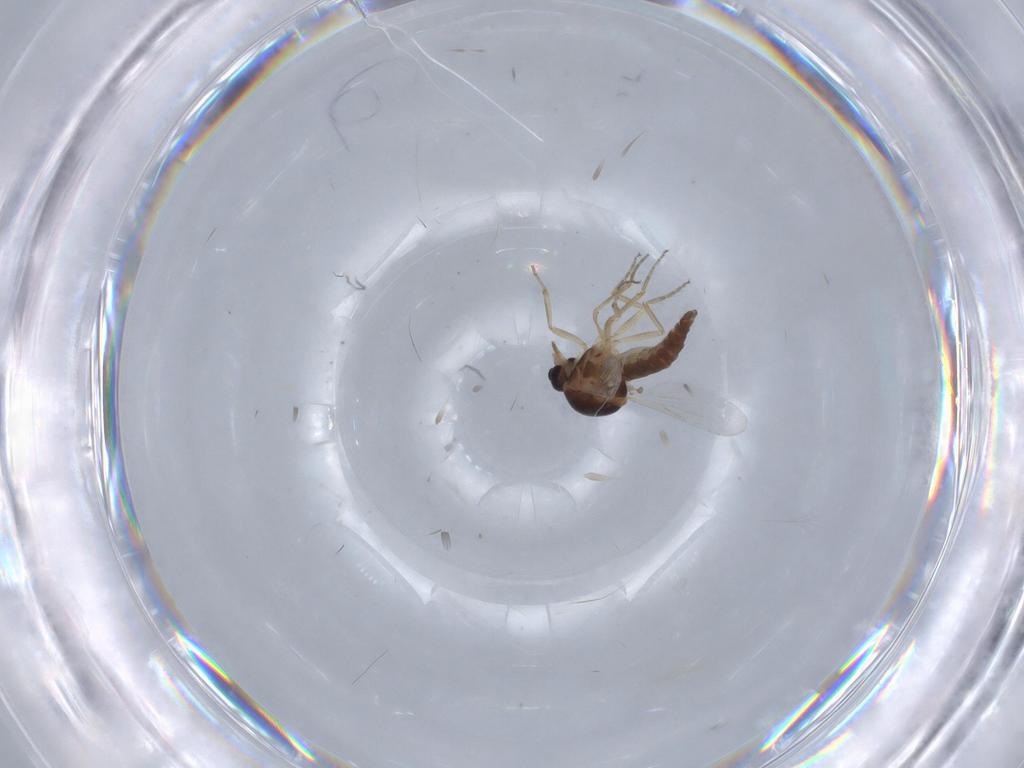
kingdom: Animalia
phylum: Arthropoda
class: Insecta
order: Diptera
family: Ceratopogonidae
